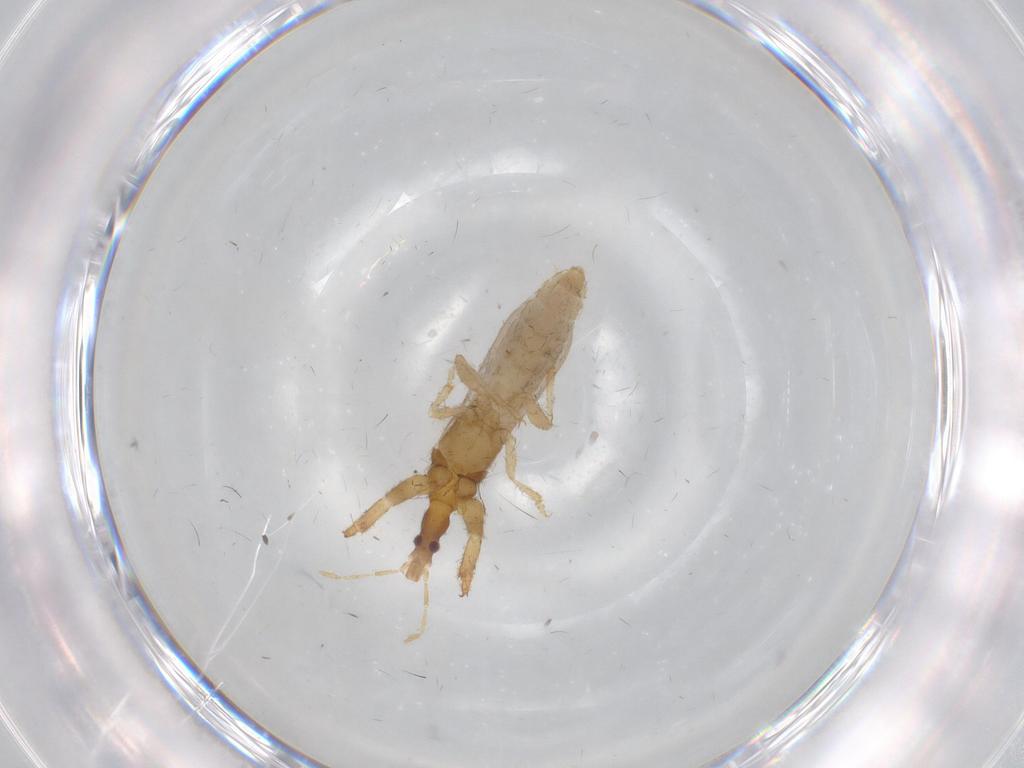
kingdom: Animalia
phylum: Arthropoda
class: Insecta
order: Hemiptera
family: Enicocephalidae
